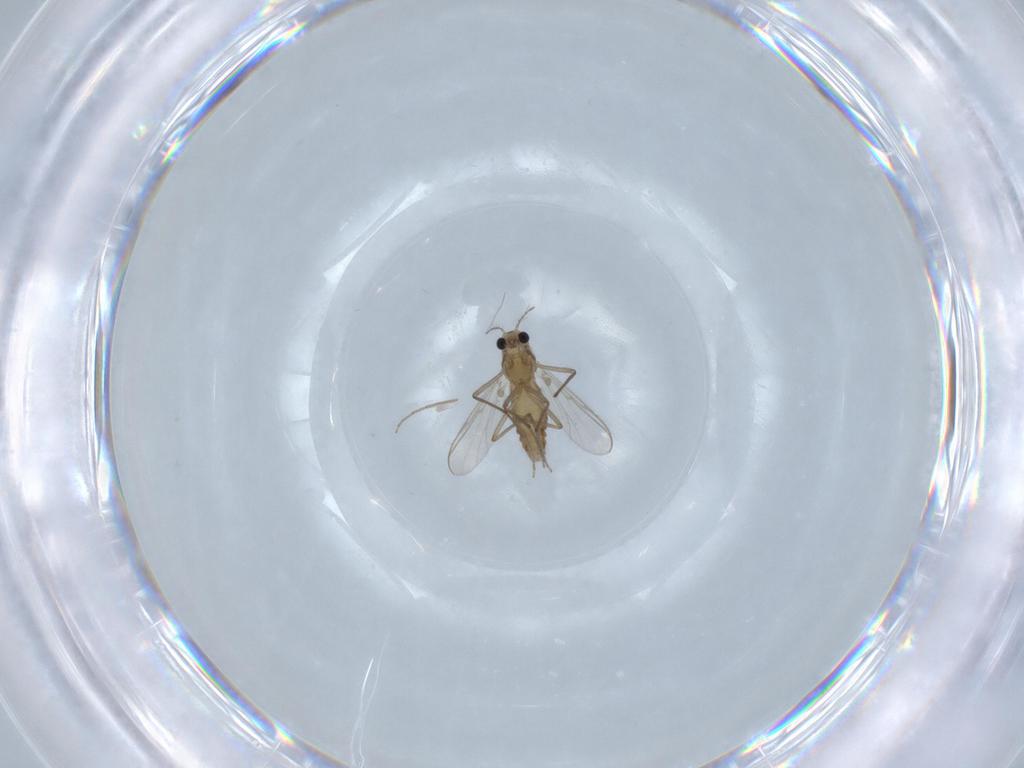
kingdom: Animalia
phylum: Arthropoda
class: Insecta
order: Diptera
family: Chironomidae
